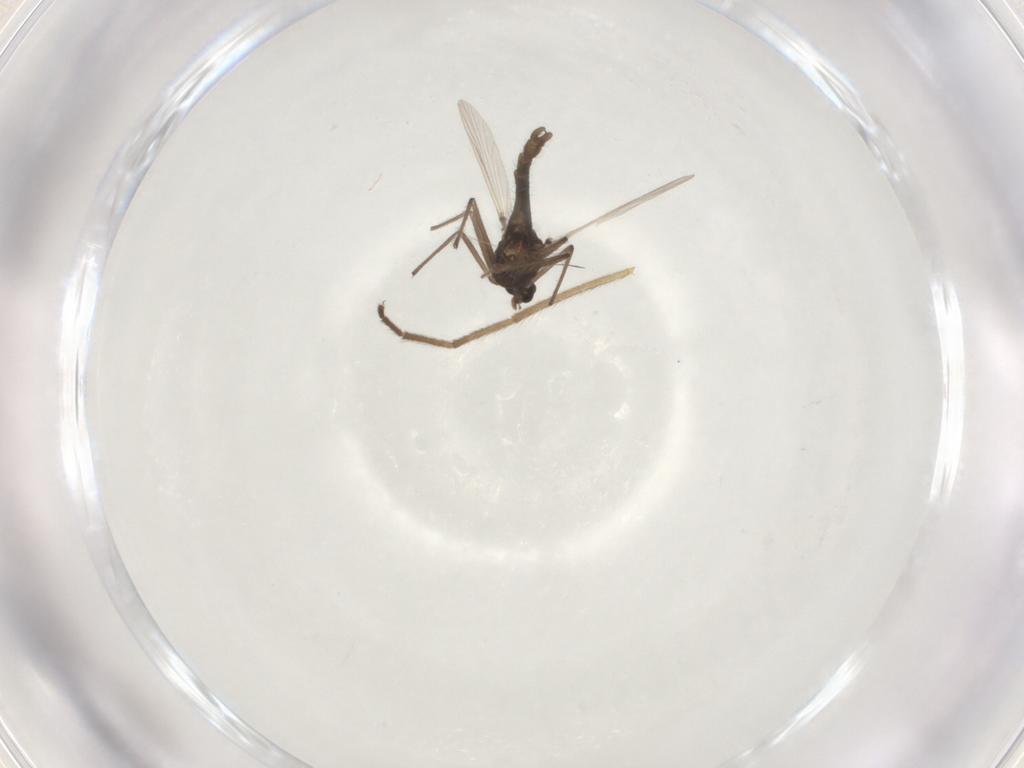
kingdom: Animalia
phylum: Arthropoda
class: Insecta
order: Diptera
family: Chironomidae
